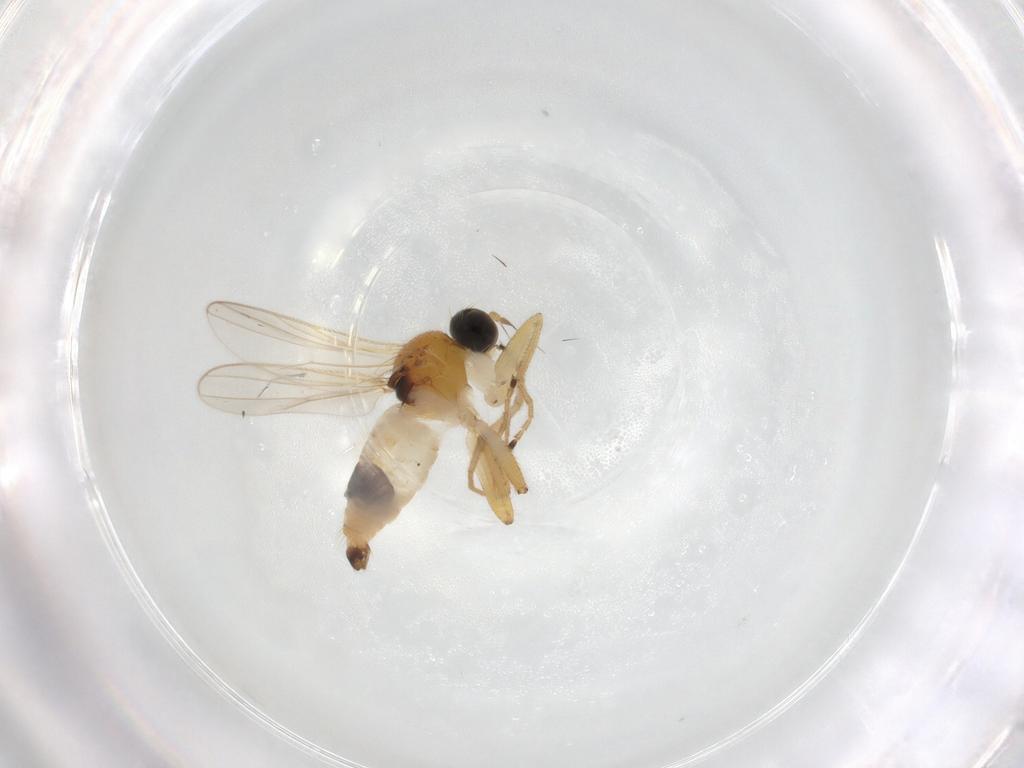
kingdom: Animalia
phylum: Arthropoda
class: Insecta
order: Diptera
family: Hybotidae
